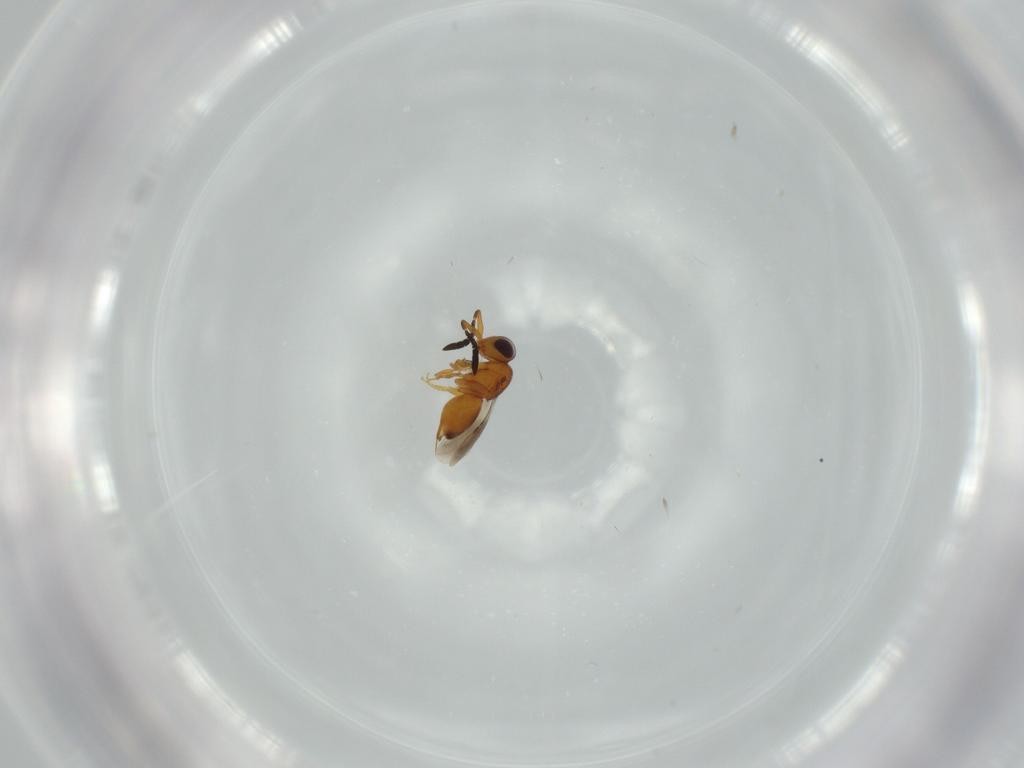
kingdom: Animalia
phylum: Arthropoda
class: Insecta
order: Hymenoptera
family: Ceraphronidae
